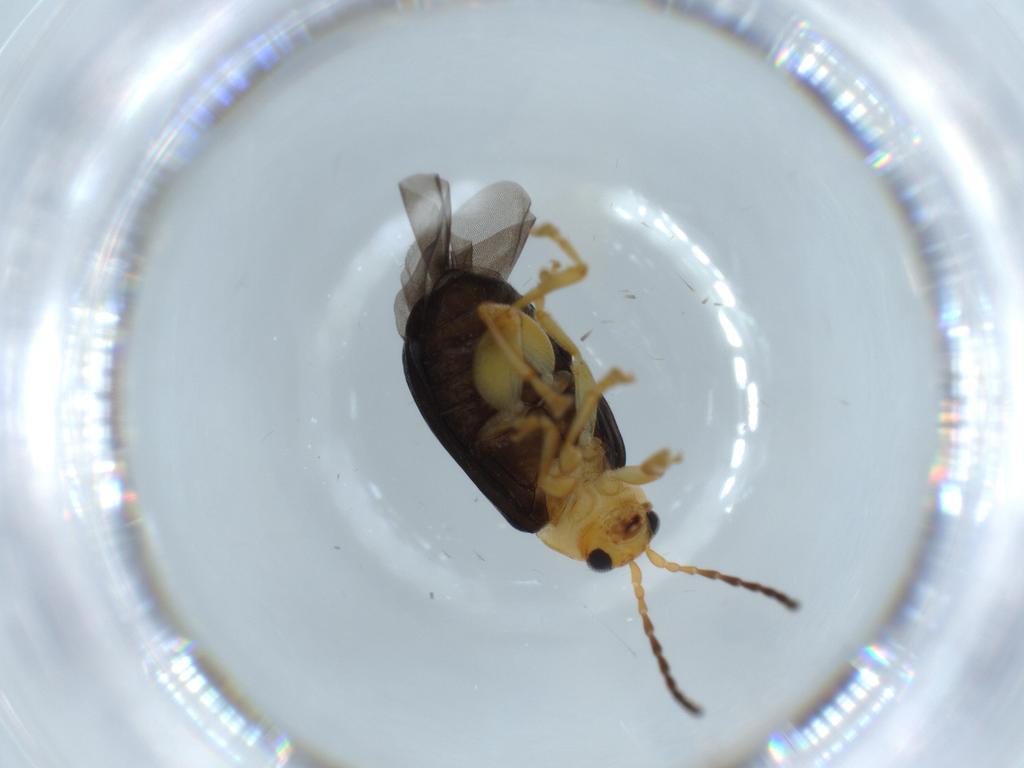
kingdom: Animalia
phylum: Arthropoda
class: Insecta
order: Coleoptera
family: Chrysomelidae
